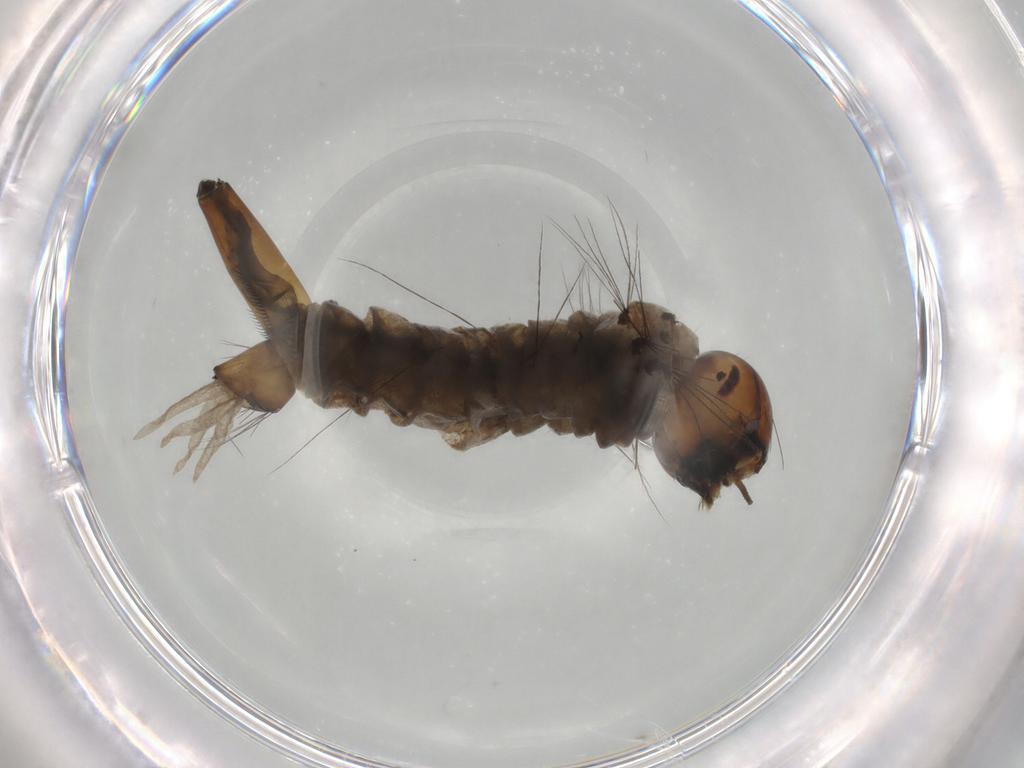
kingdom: Animalia
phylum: Arthropoda
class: Insecta
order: Diptera
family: Culicidae
